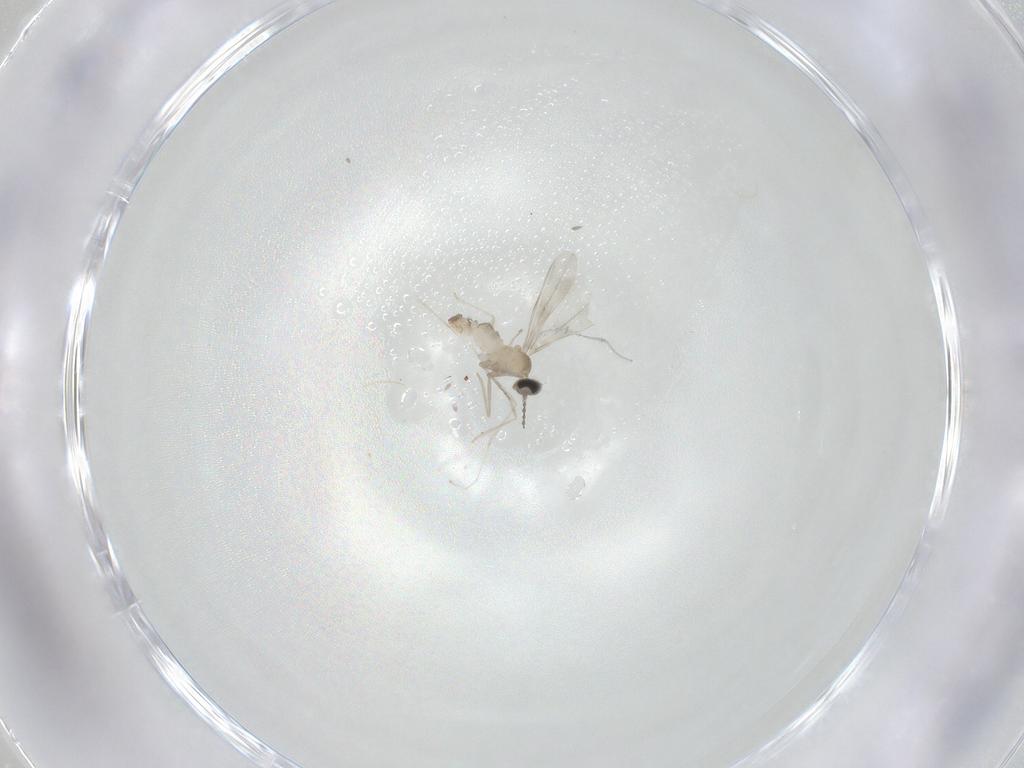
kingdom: Animalia
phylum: Arthropoda
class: Insecta
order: Diptera
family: Cecidomyiidae
